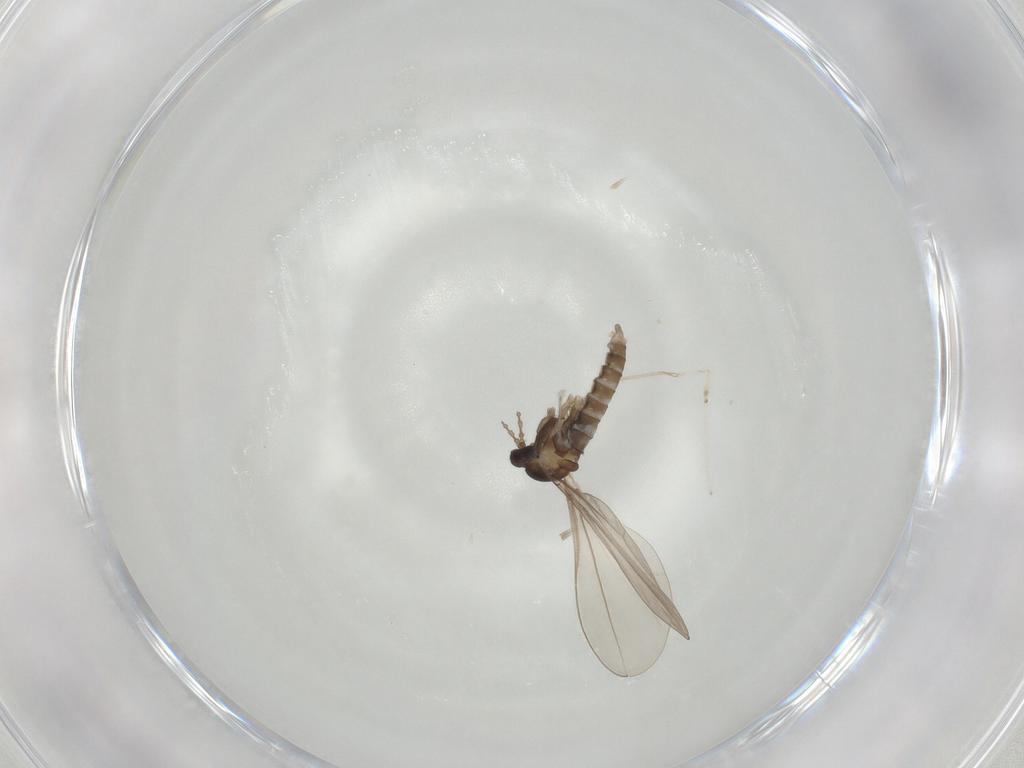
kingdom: Animalia
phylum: Arthropoda
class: Insecta
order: Diptera
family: Cecidomyiidae
